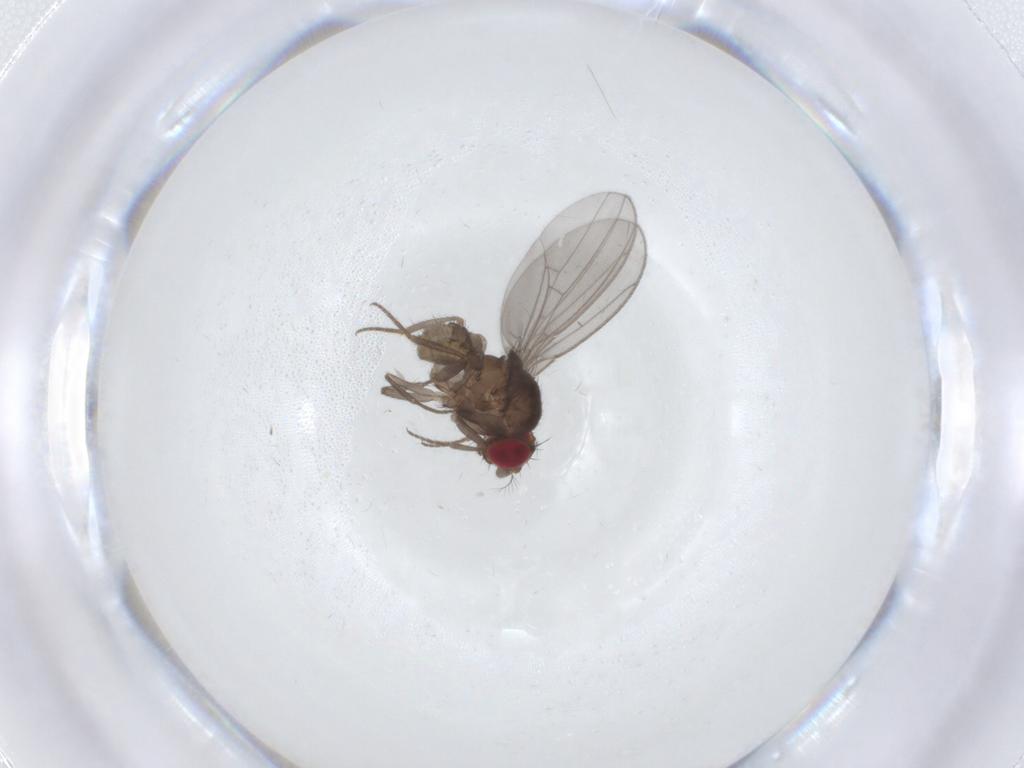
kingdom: Animalia
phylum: Arthropoda
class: Insecta
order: Diptera
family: Drosophilidae
